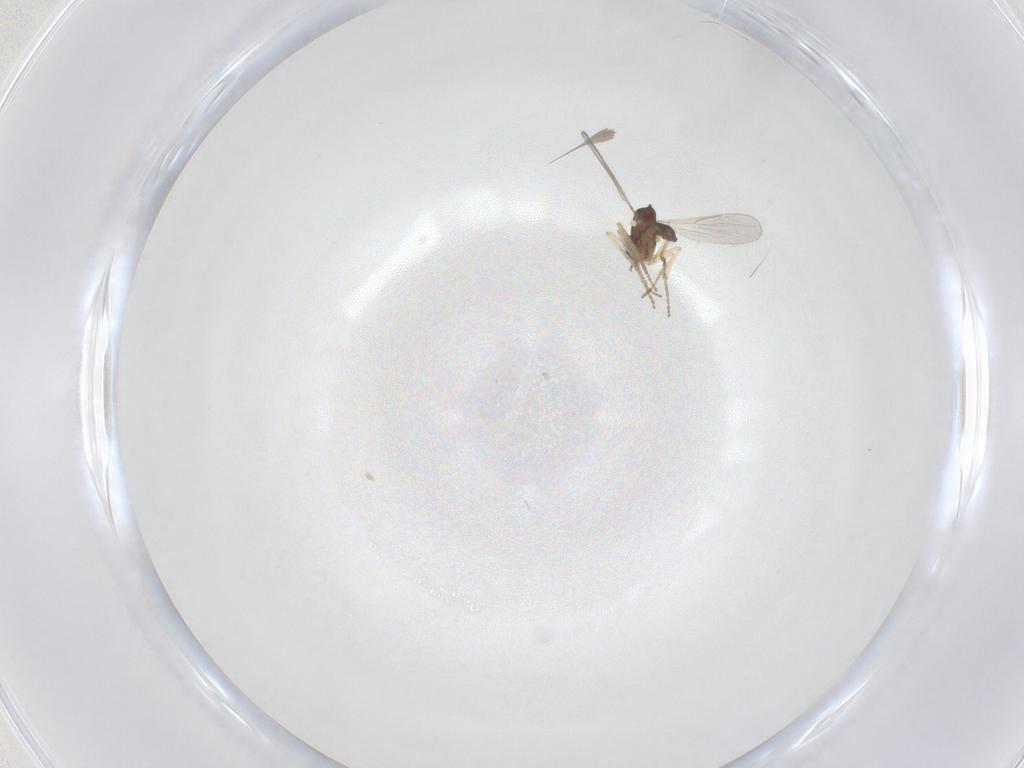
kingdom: Animalia
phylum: Arthropoda
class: Insecta
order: Diptera
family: Ceratopogonidae
